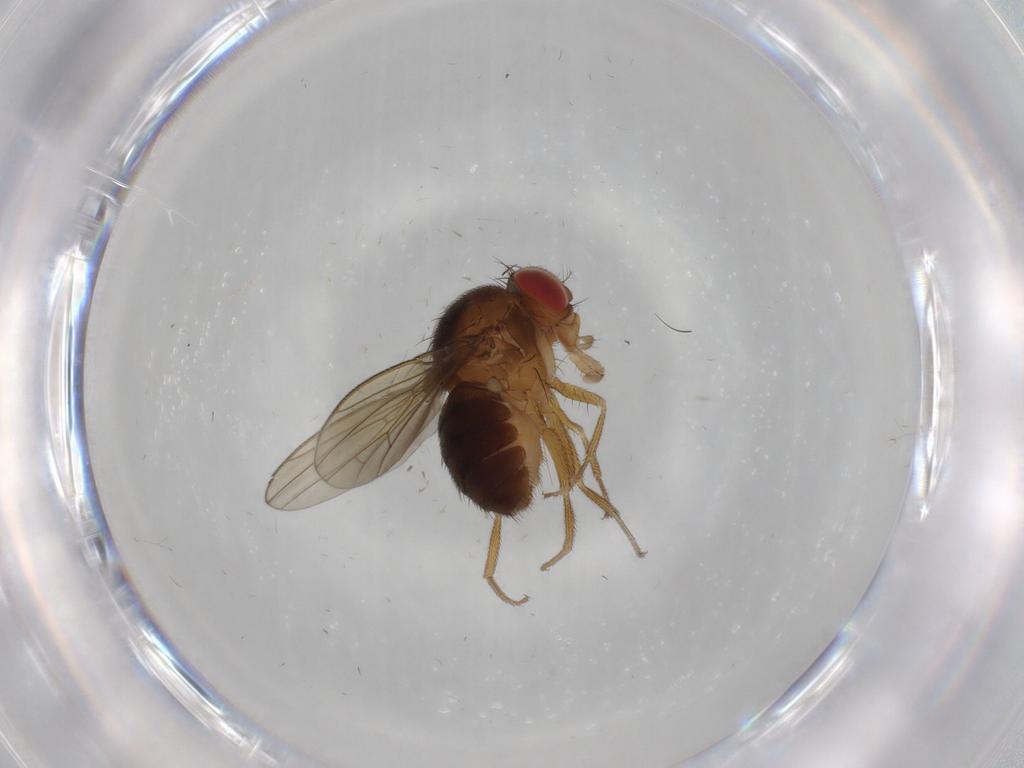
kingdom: Animalia
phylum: Arthropoda
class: Insecta
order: Diptera
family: Drosophilidae
